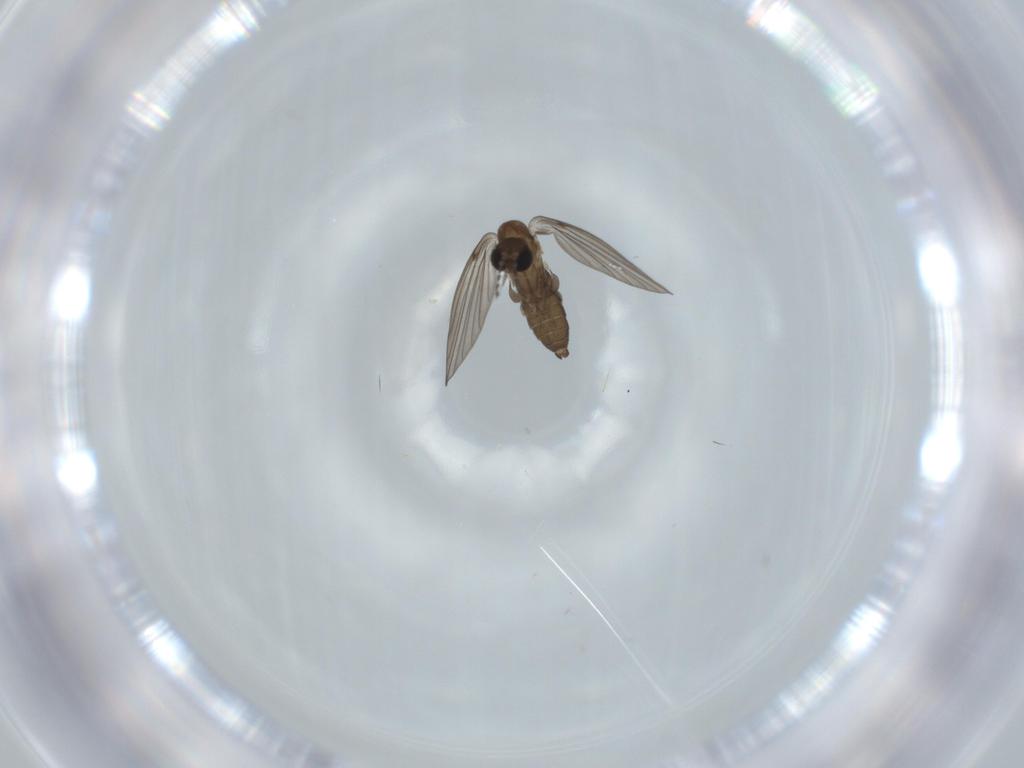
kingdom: Animalia
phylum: Arthropoda
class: Insecta
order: Diptera
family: Psychodidae
